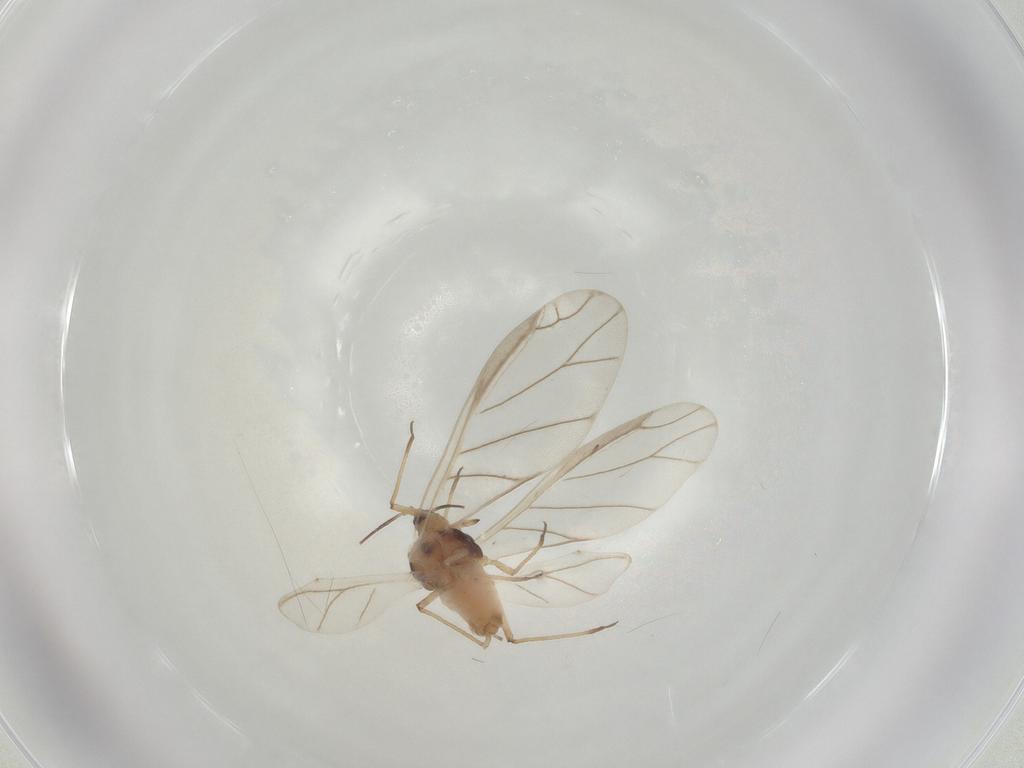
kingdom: Animalia
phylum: Arthropoda
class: Insecta
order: Hemiptera
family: Aphididae
